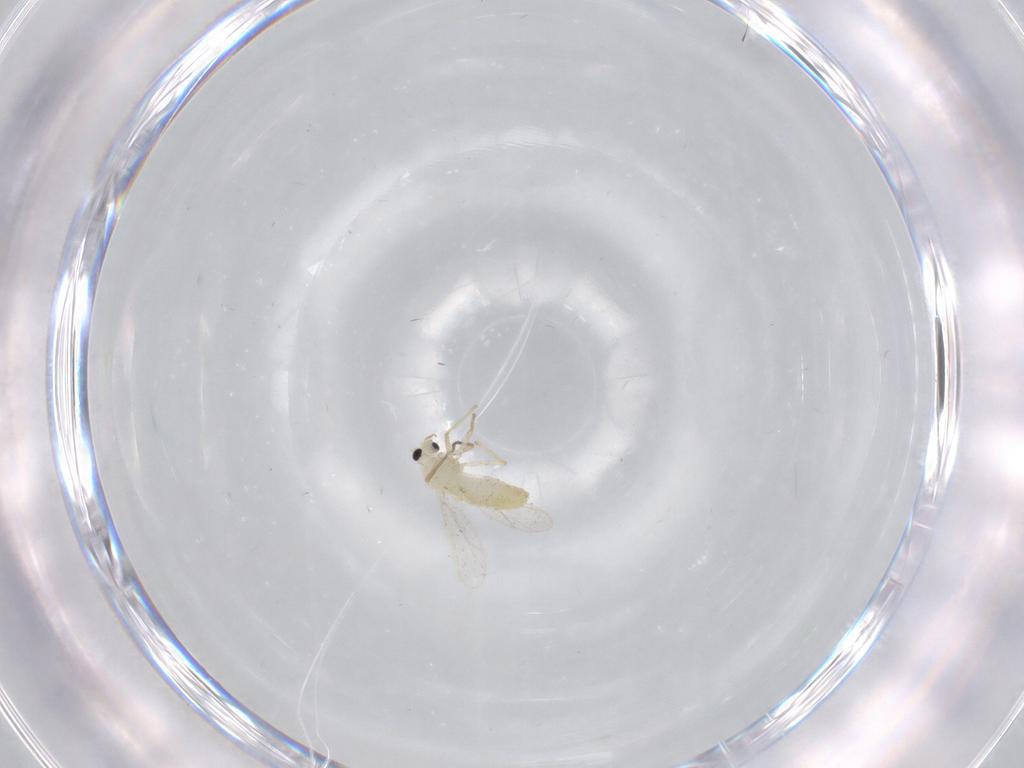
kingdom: Animalia
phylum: Arthropoda
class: Insecta
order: Diptera
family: Chironomidae
